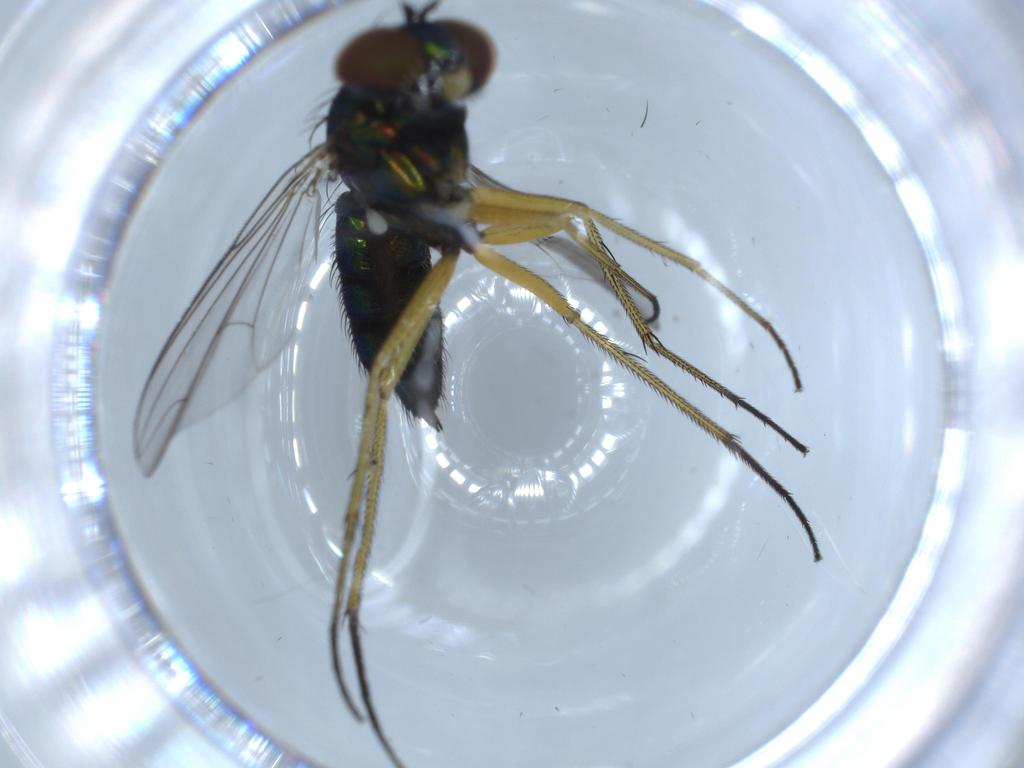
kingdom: Animalia
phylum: Arthropoda
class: Insecta
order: Diptera
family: Dolichopodidae
